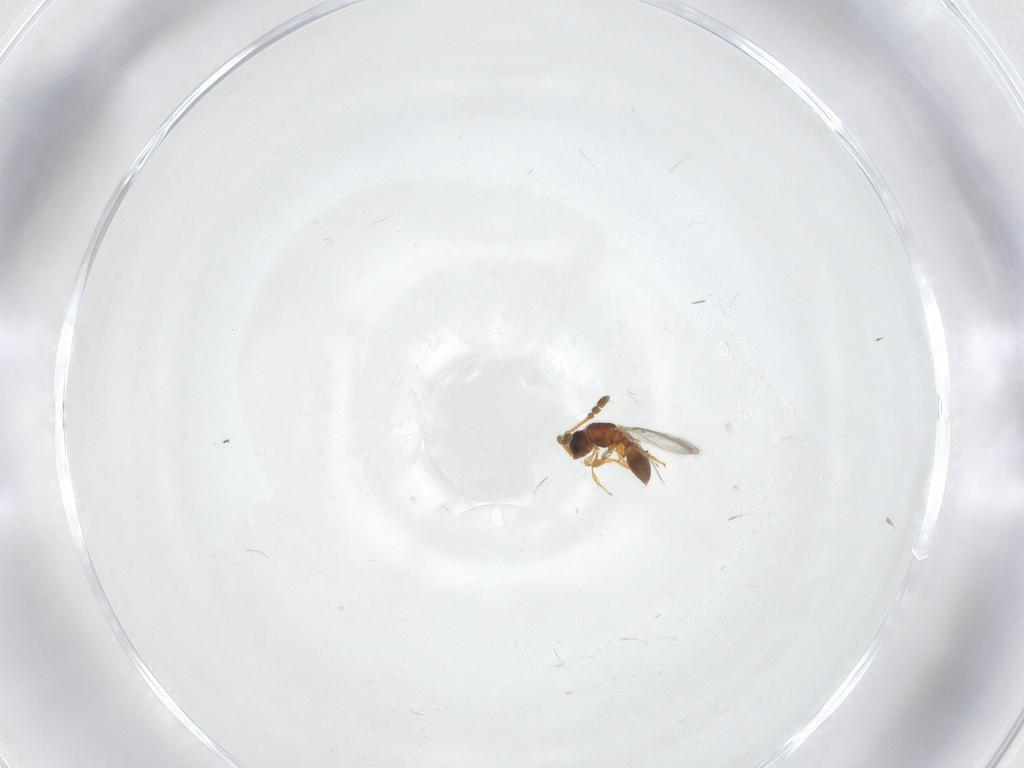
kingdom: Animalia
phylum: Arthropoda
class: Insecta
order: Hymenoptera
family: Diapriidae
